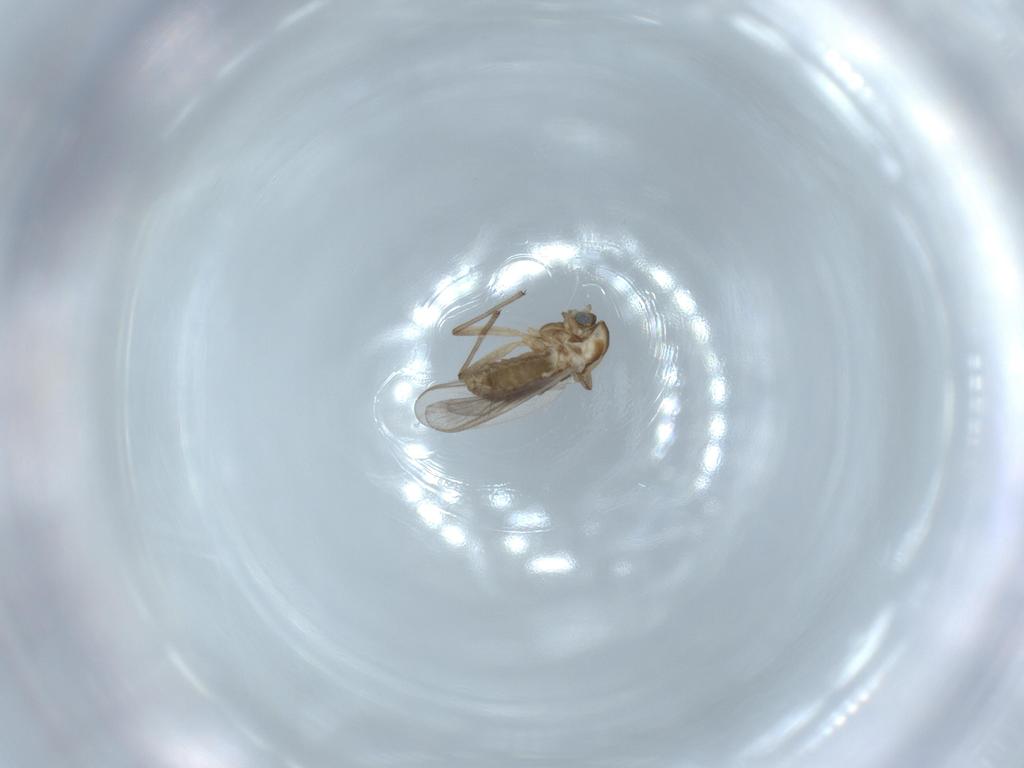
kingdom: Animalia
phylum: Arthropoda
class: Insecta
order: Diptera
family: Chironomidae
